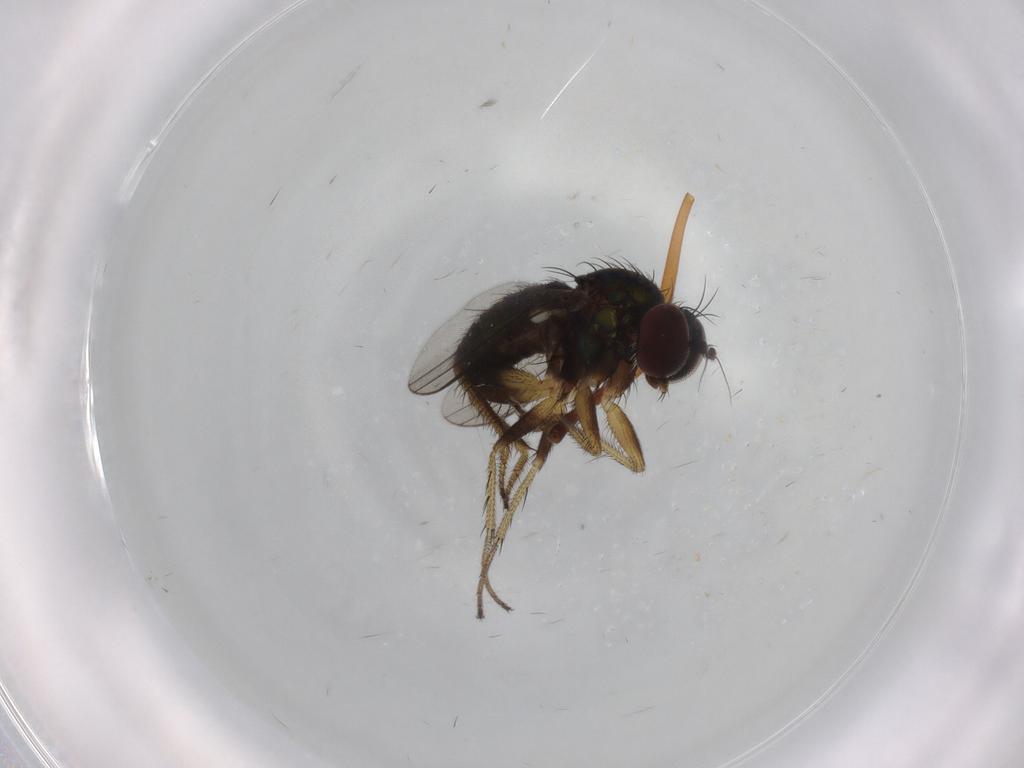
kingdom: Animalia
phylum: Arthropoda
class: Insecta
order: Diptera
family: Dolichopodidae
